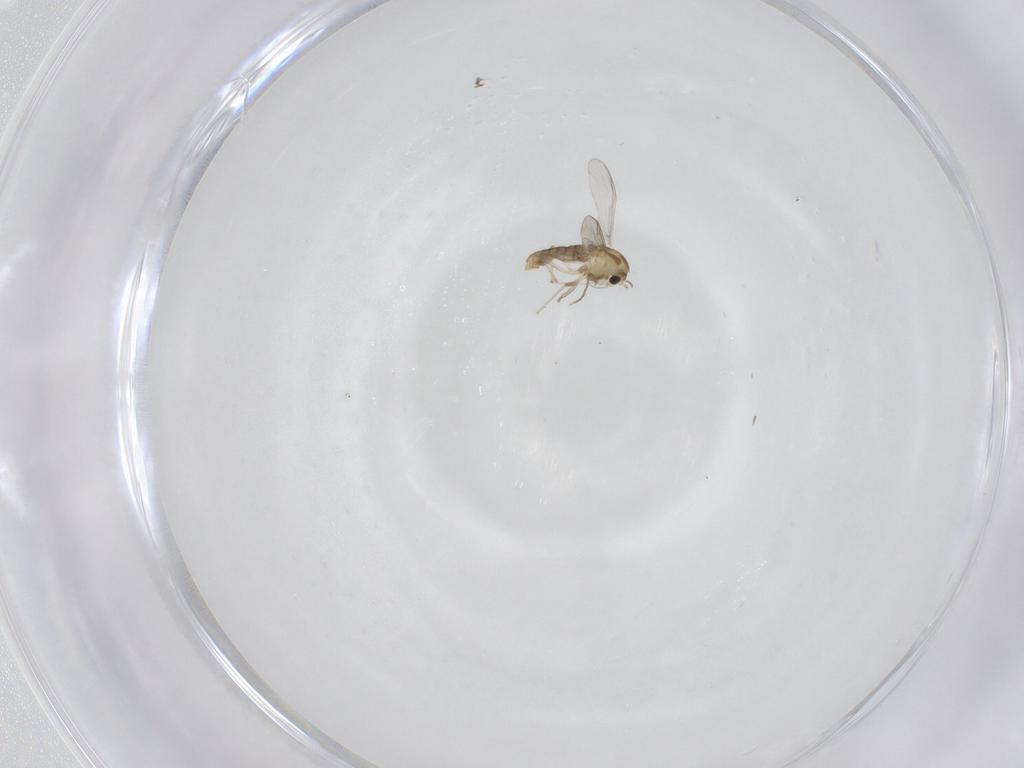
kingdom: Animalia
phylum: Arthropoda
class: Insecta
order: Diptera
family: Chironomidae
